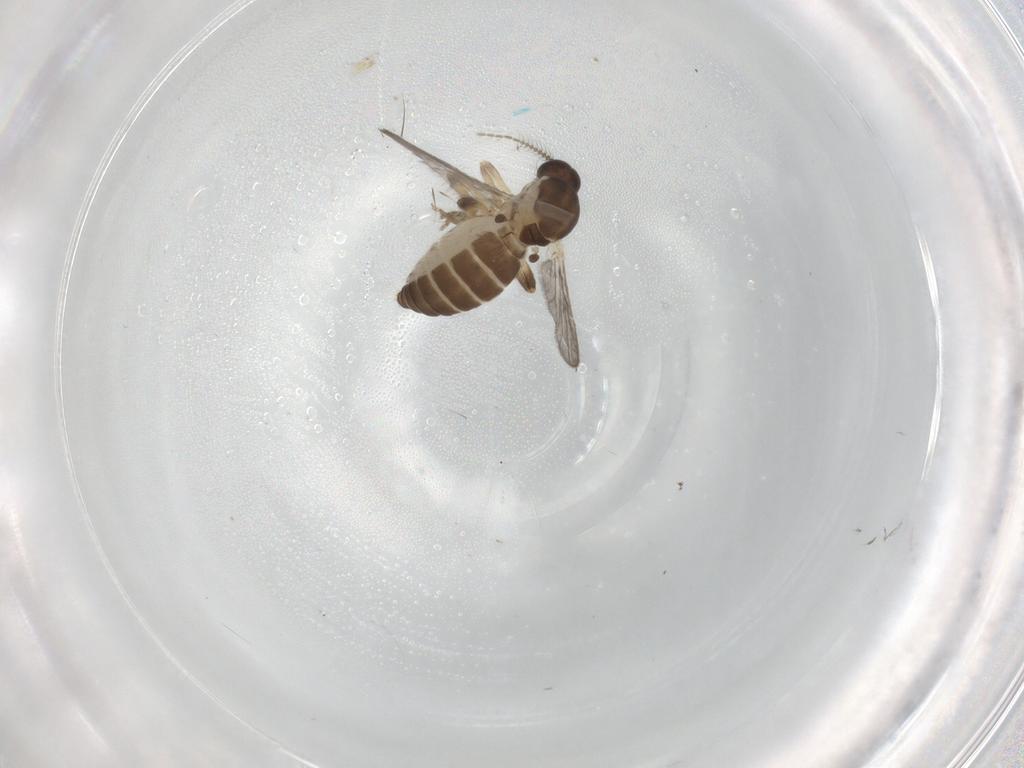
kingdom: Animalia
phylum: Arthropoda
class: Insecta
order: Diptera
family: Ceratopogonidae
